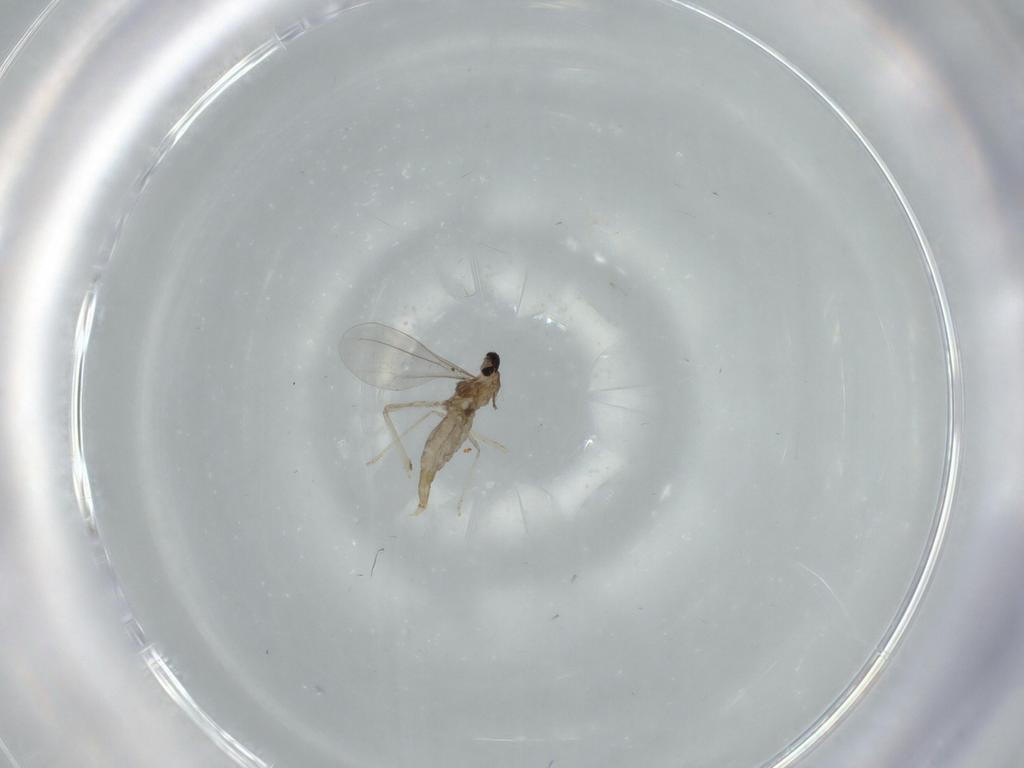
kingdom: Animalia
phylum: Arthropoda
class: Insecta
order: Diptera
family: Cecidomyiidae
